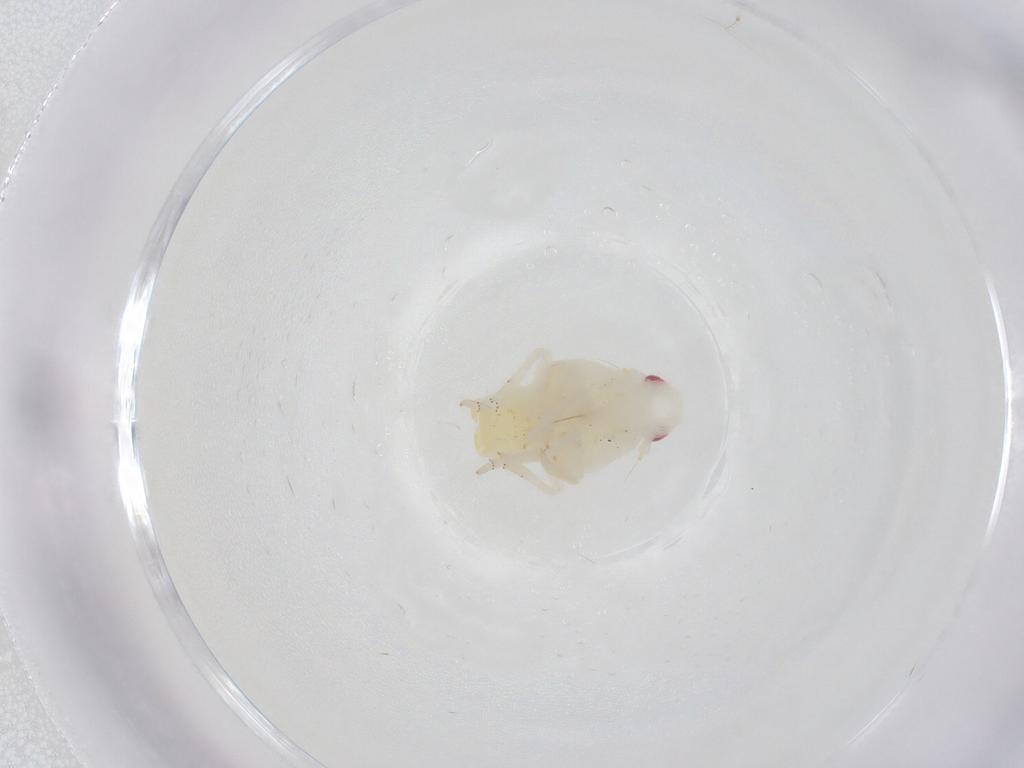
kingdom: Animalia
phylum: Arthropoda
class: Insecta
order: Hemiptera
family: Flatidae
